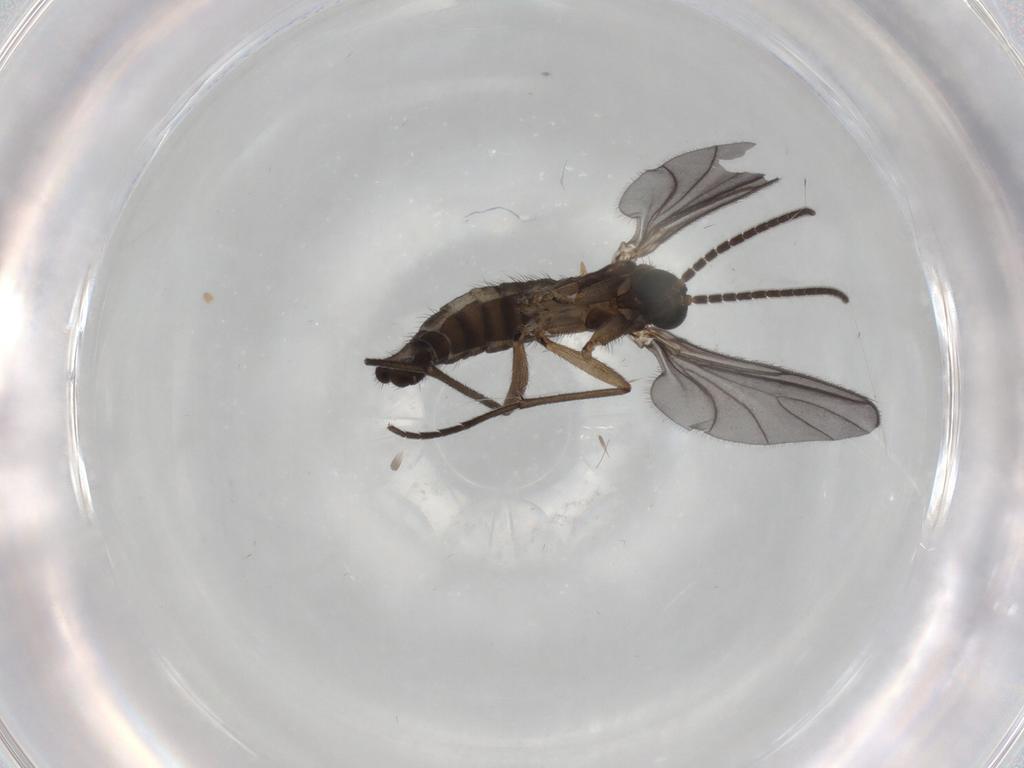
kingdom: Animalia
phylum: Arthropoda
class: Insecta
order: Diptera
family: Sciaridae
